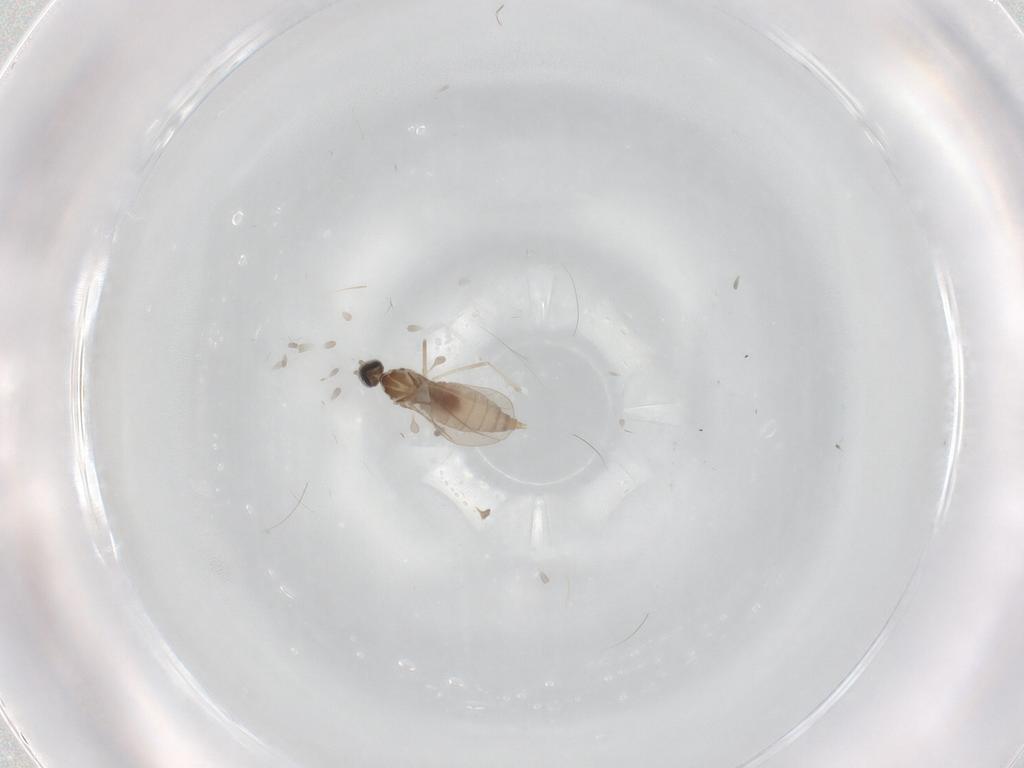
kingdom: Animalia
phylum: Arthropoda
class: Insecta
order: Diptera
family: Cecidomyiidae
